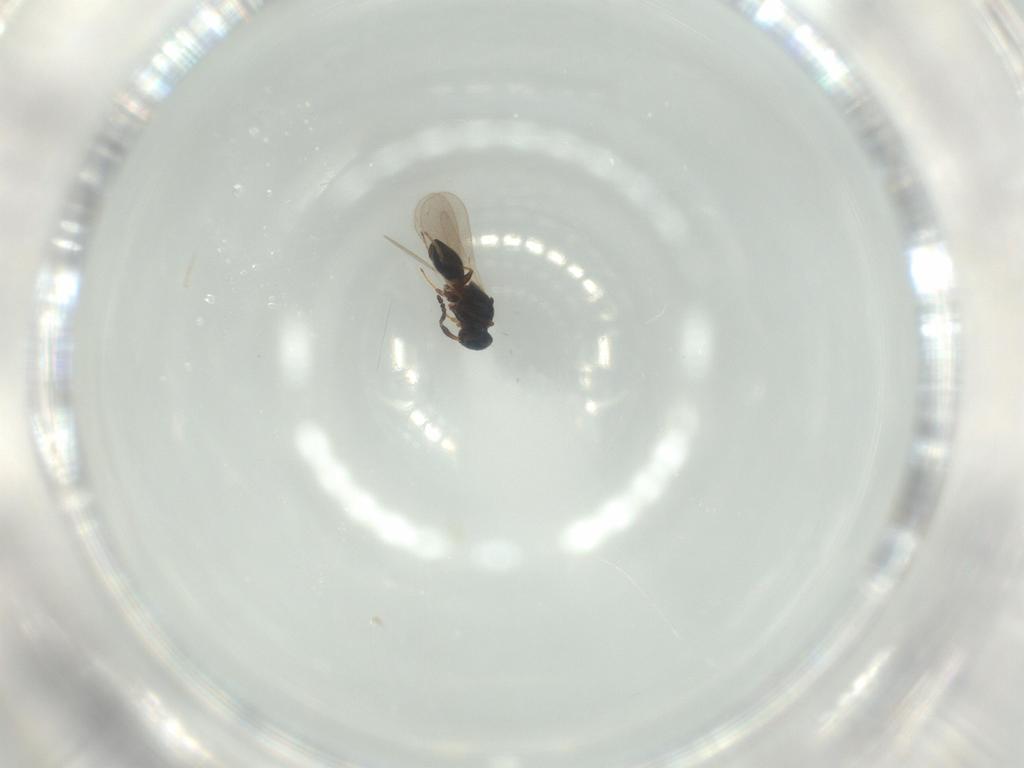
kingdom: Animalia
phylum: Arthropoda
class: Insecta
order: Hymenoptera
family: Platygastridae
